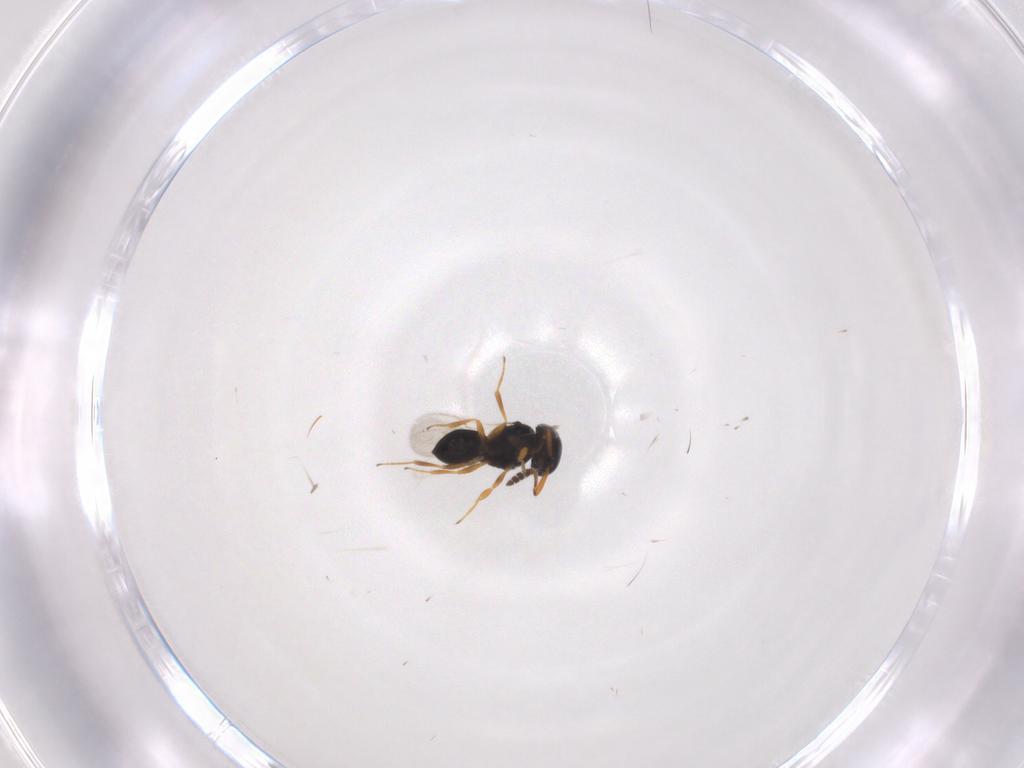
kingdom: Animalia
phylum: Arthropoda
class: Insecta
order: Hymenoptera
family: Scelionidae
